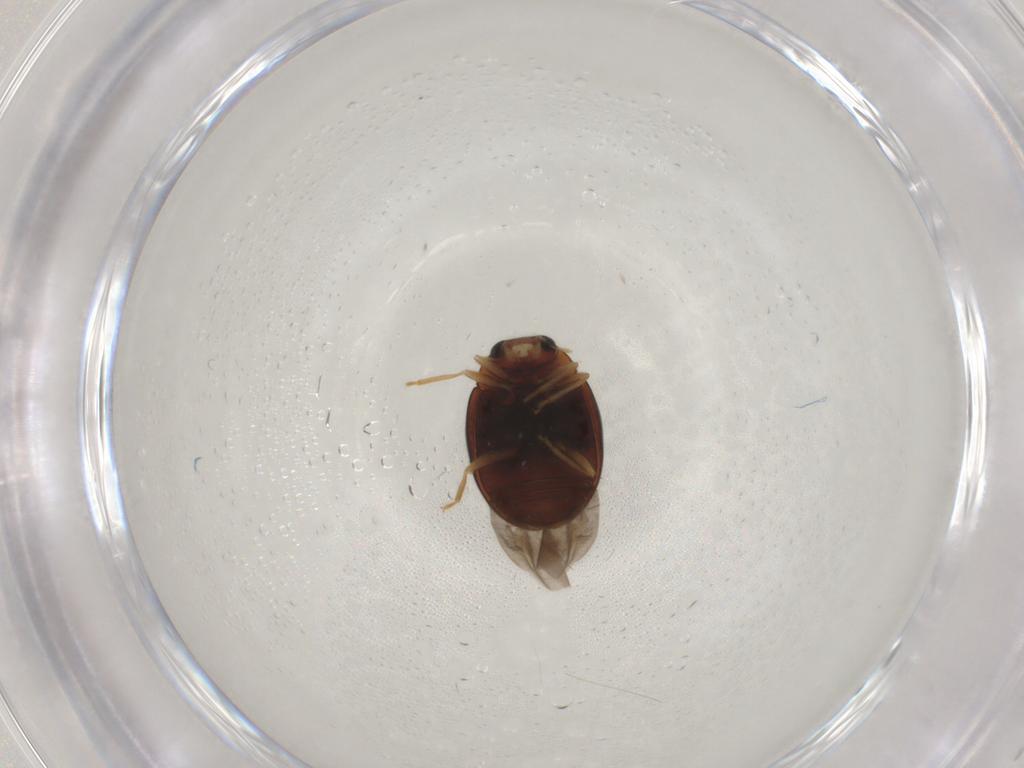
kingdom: Animalia
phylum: Arthropoda
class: Insecta
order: Coleoptera
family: Coccinellidae
